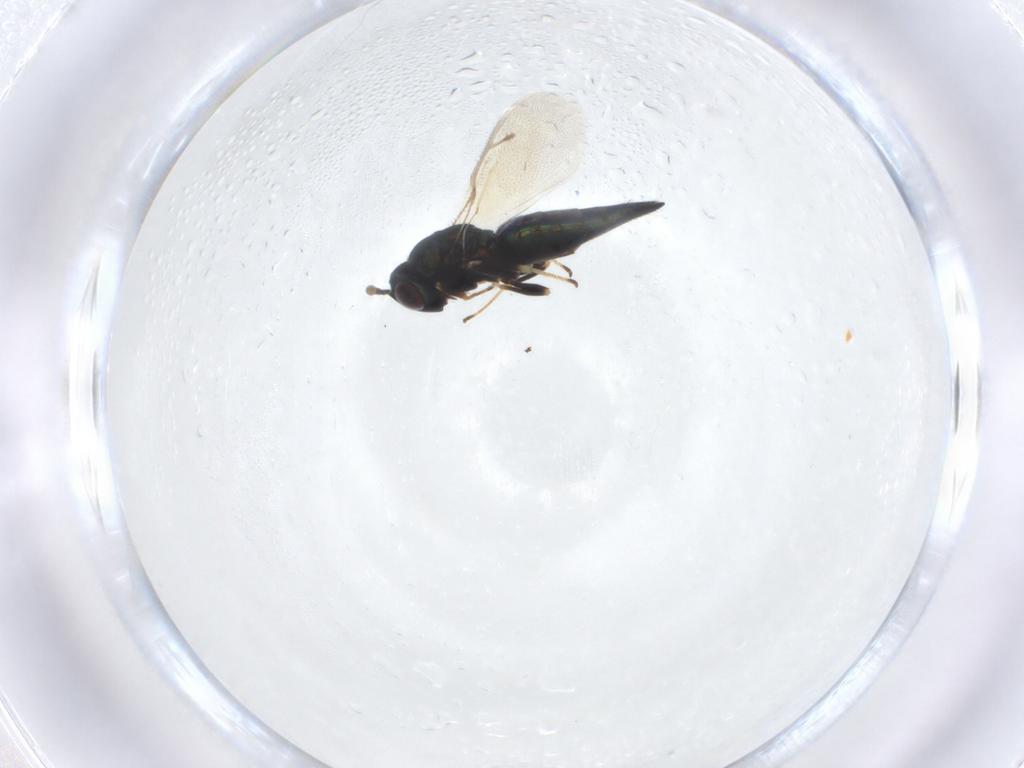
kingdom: Animalia
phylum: Arthropoda
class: Insecta
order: Hymenoptera
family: Pteromalidae
